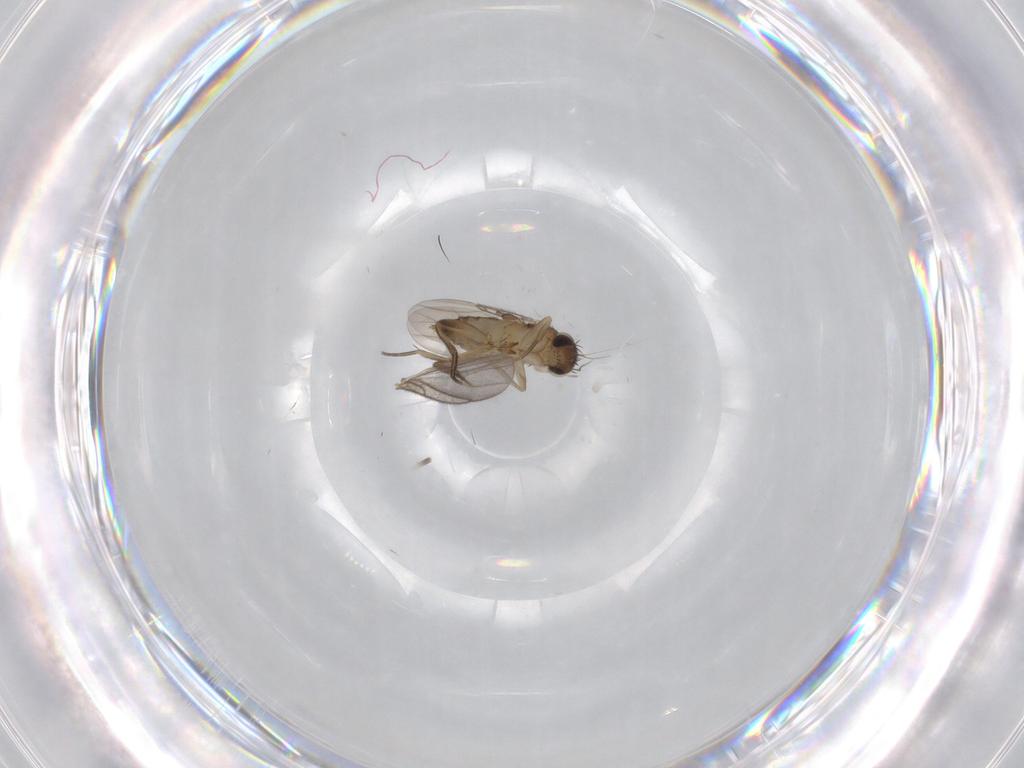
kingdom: Animalia
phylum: Arthropoda
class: Insecta
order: Diptera
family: Phoridae
